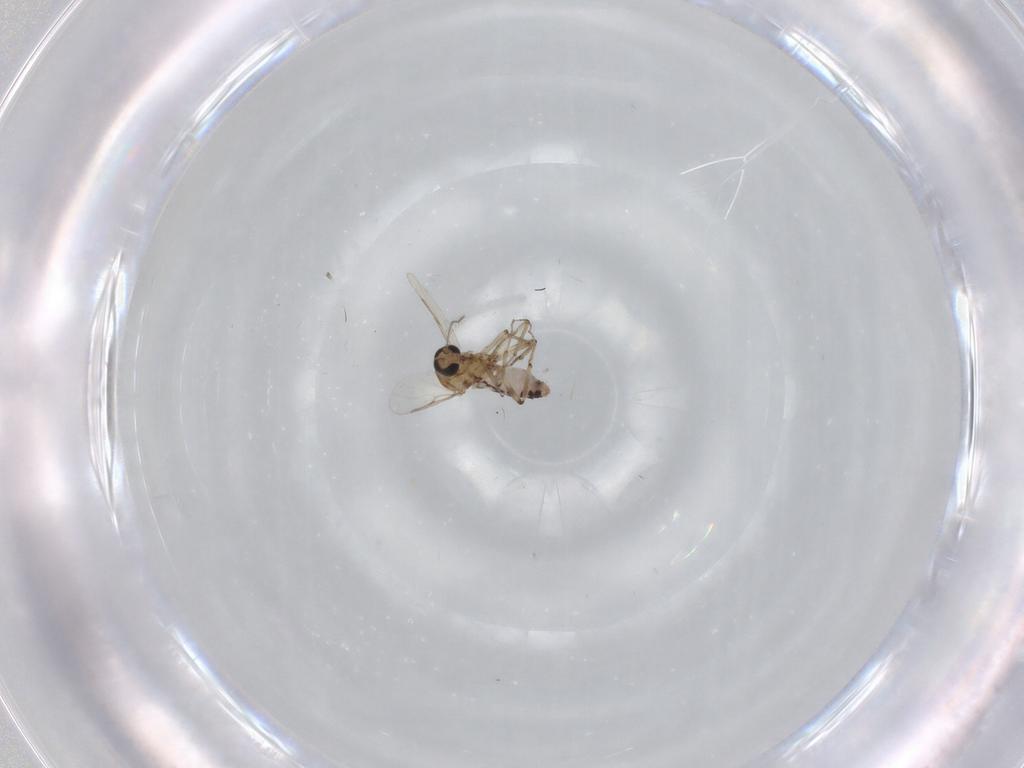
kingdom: Animalia
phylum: Arthropoda
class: Insecta
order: Diptera
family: Ceratopogonidae
